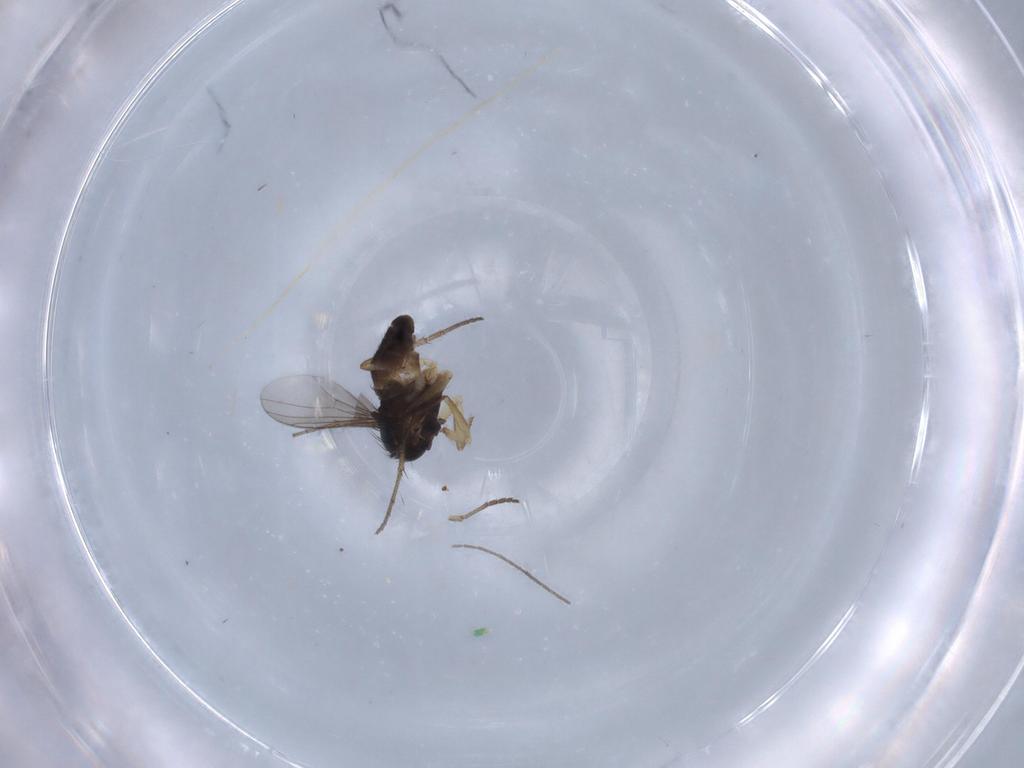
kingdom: Animalia
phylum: Arthropoda
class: Insecta
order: Diptera
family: Dolichopodidae
